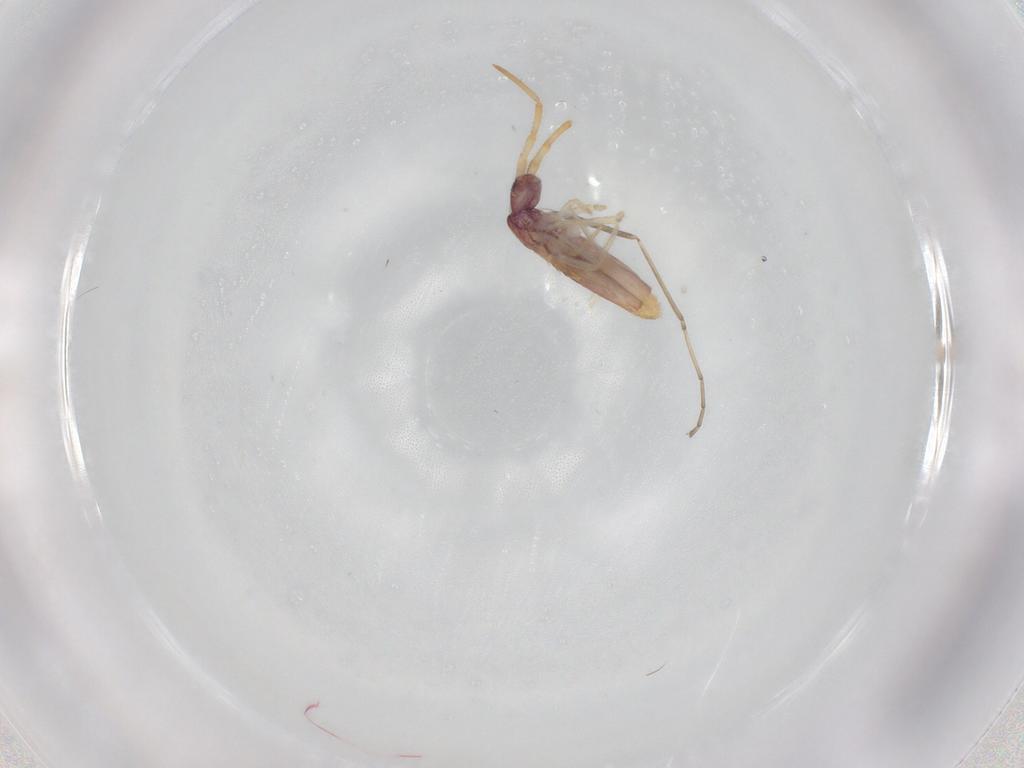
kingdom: Animalia
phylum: Arthropoda
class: Collembola
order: Entomobryomorpha
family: Entomobryidae
